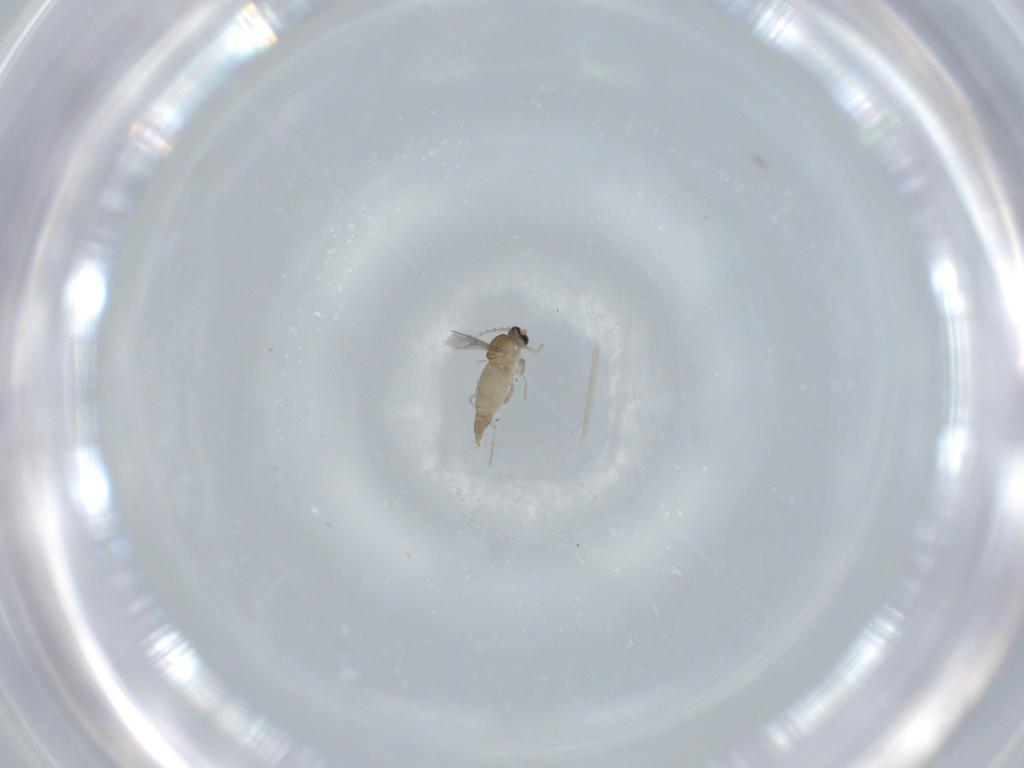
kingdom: Animalia
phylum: Arthropoda
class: Insecta
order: Diptera
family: Cecidomyiidae
